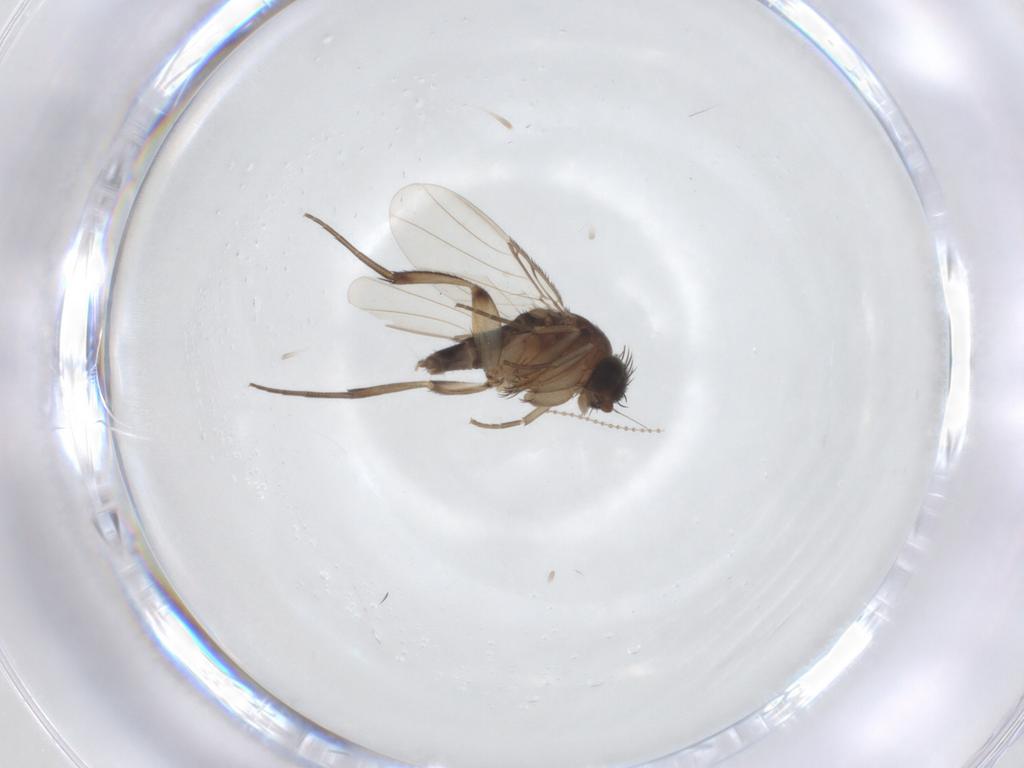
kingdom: Animalia
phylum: Arthropoda
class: Insecta
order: Diptera
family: Phoridae
